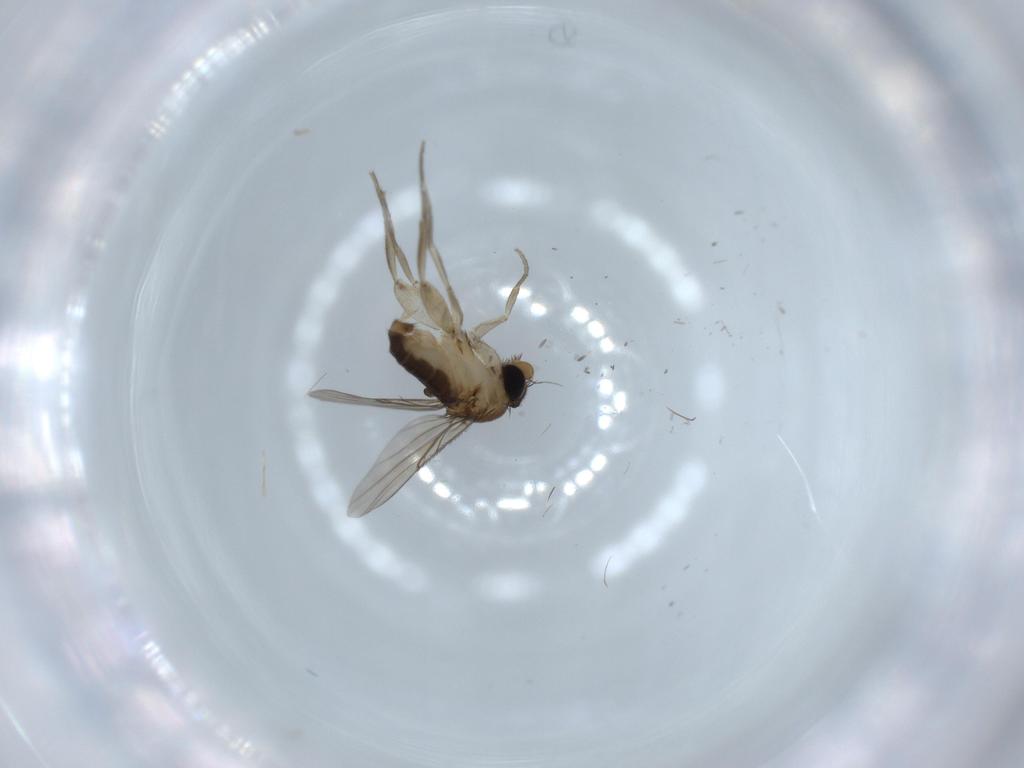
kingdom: Animalia
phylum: Arthropoda
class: Insecta
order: Diptera
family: Phoridae
